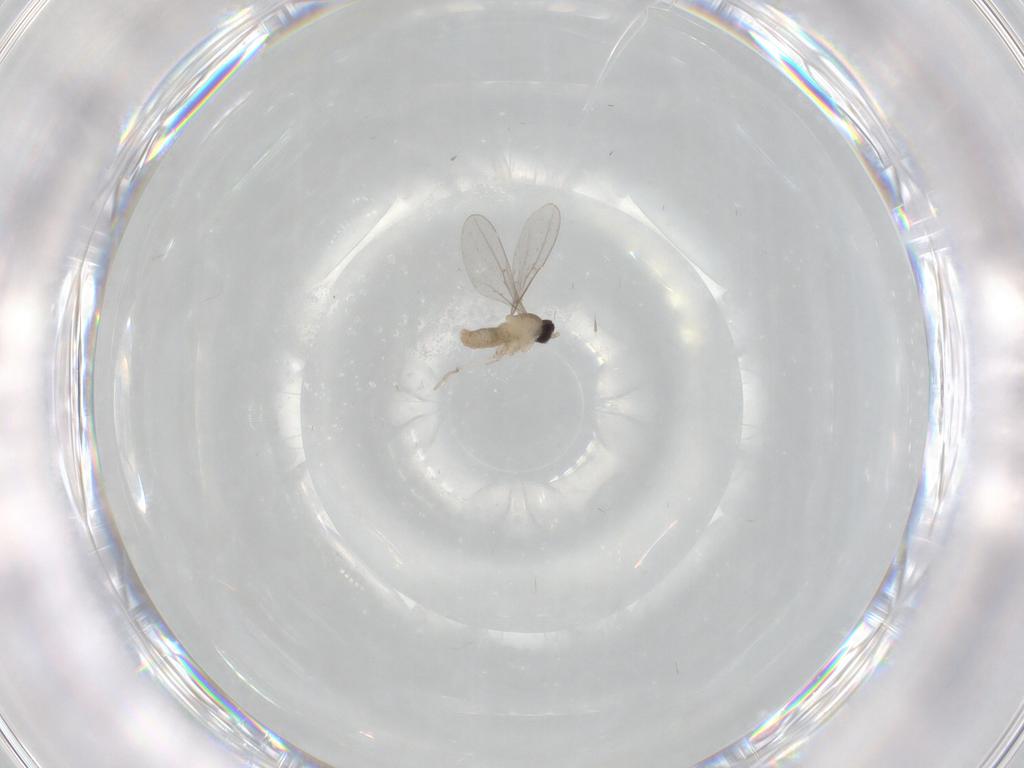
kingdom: Animalia
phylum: Arthropoda
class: Insecta
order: Diptera
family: Cecidomyiidae
